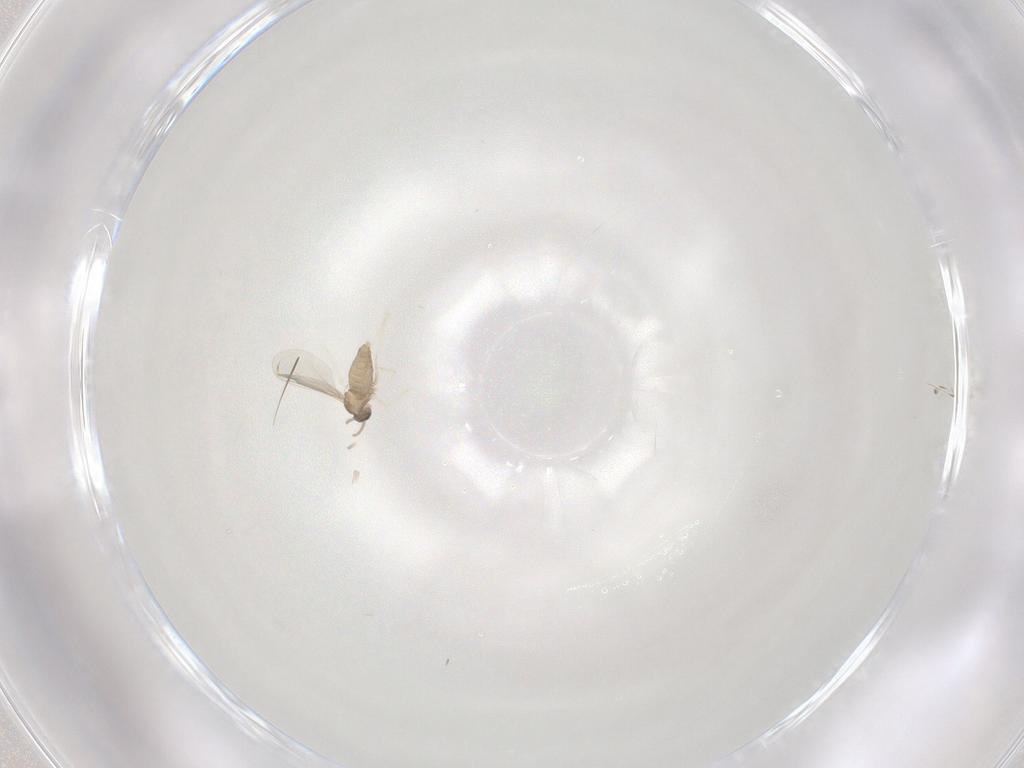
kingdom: Animalia
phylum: Arthropoda
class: Insecta
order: Diptera
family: Cecidomyiidae
